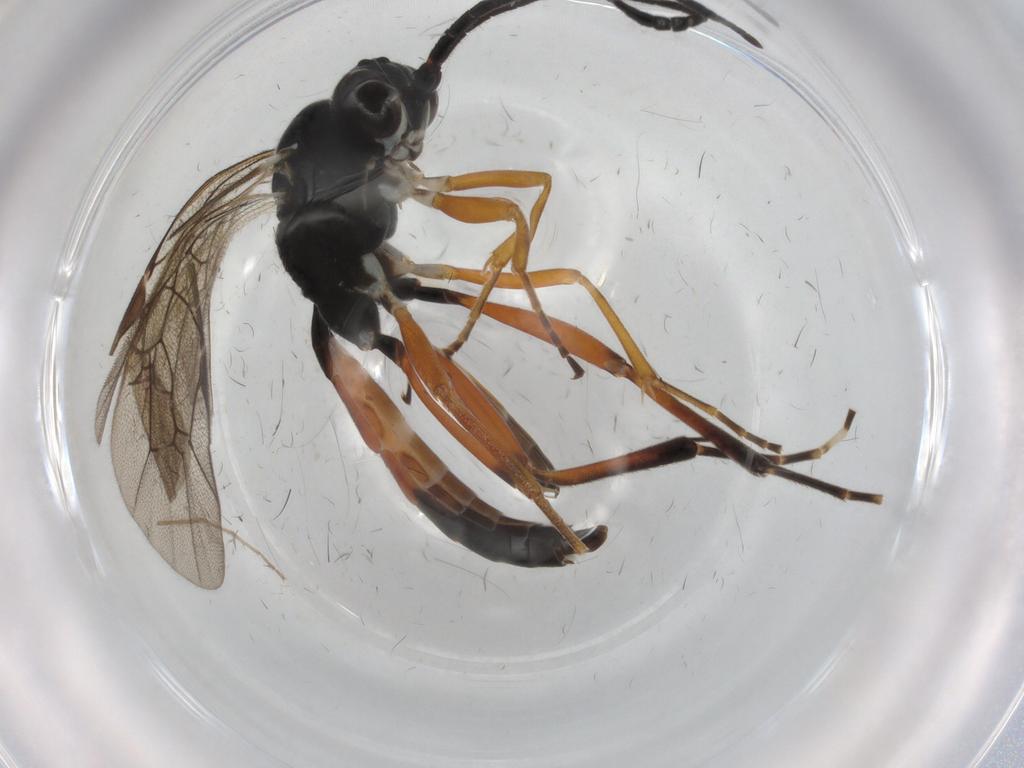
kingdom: Animalia
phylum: Arthropoda
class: Insecta
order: Hymenoptera
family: Ichneumonidae
